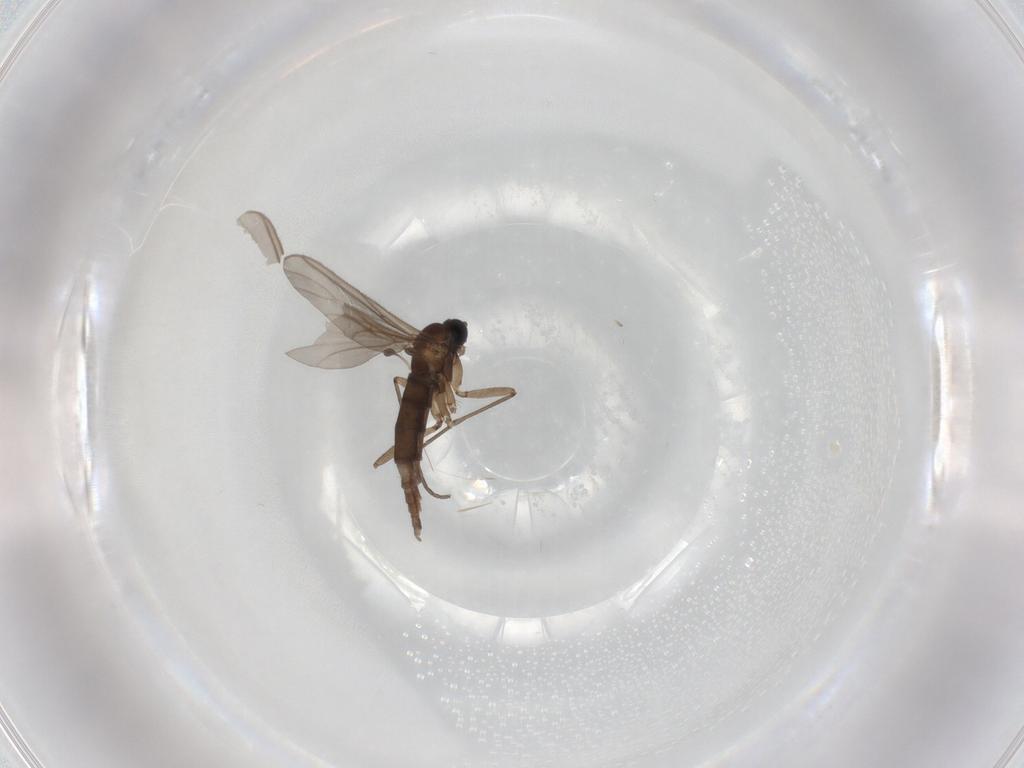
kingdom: Animalia
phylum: Arthropoda
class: Insecta
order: Diptera
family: Sciaridae
